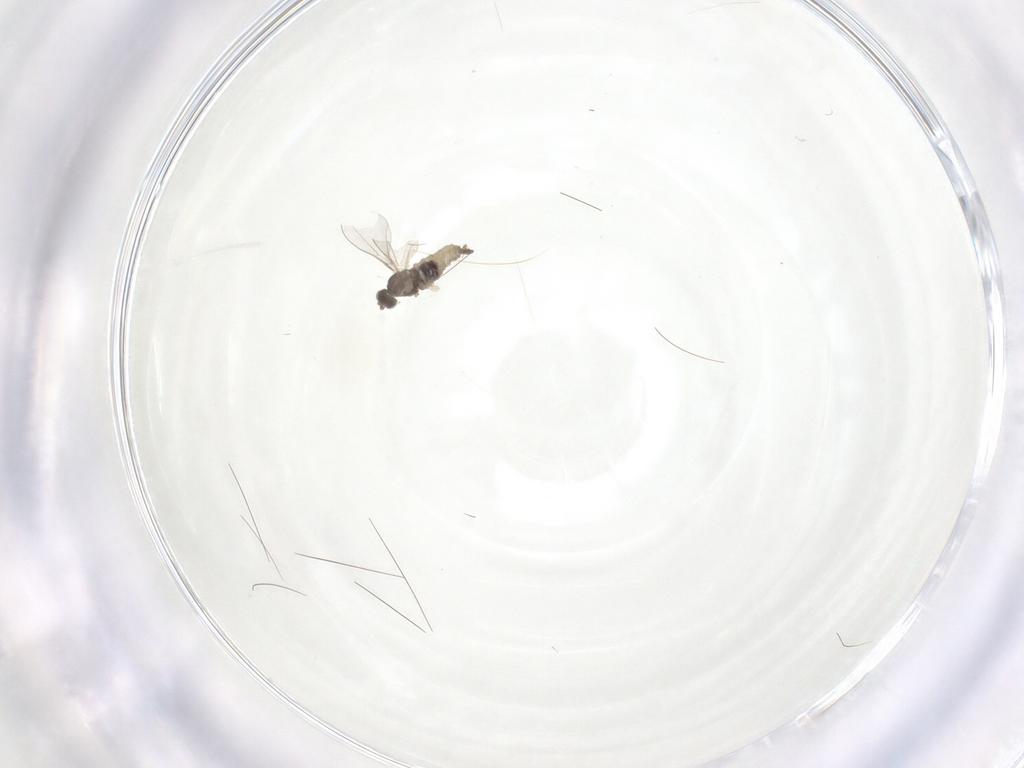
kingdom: Animalia
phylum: Arthropoda
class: Insecta
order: Diptera
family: Cecidomyiidae
